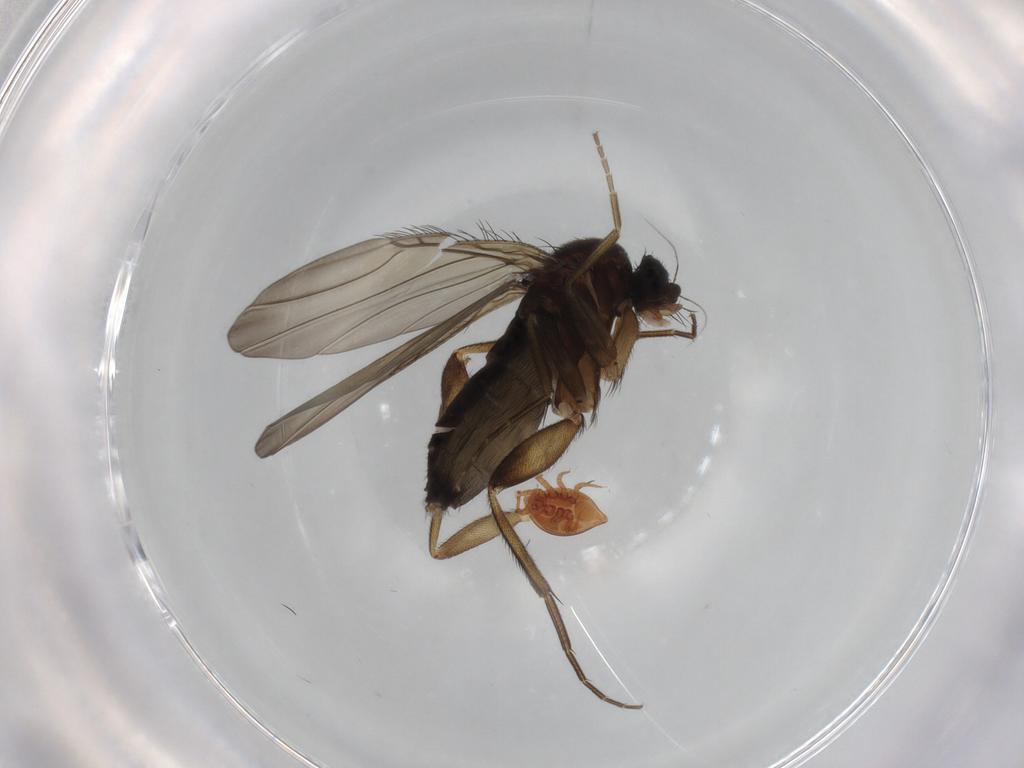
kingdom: Animalia
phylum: Arthropoda
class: Insecta
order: Diptera
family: Phoridae
